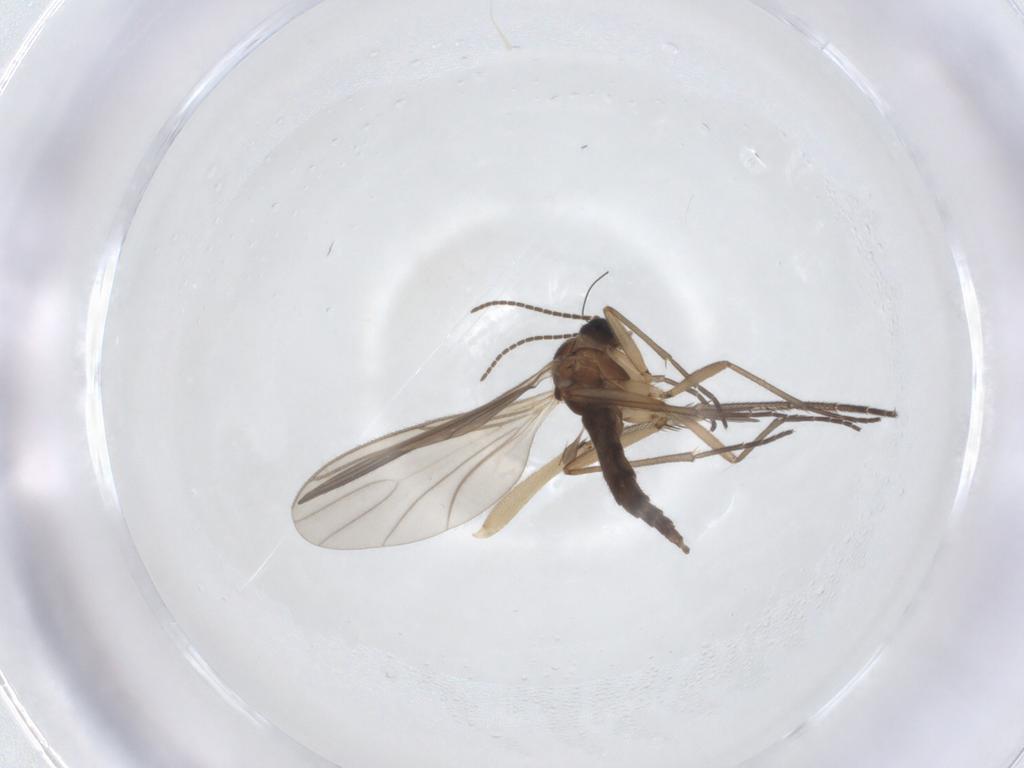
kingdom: Animalia
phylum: Arthropoda
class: Insecta
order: Diptera
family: Sciaridae
